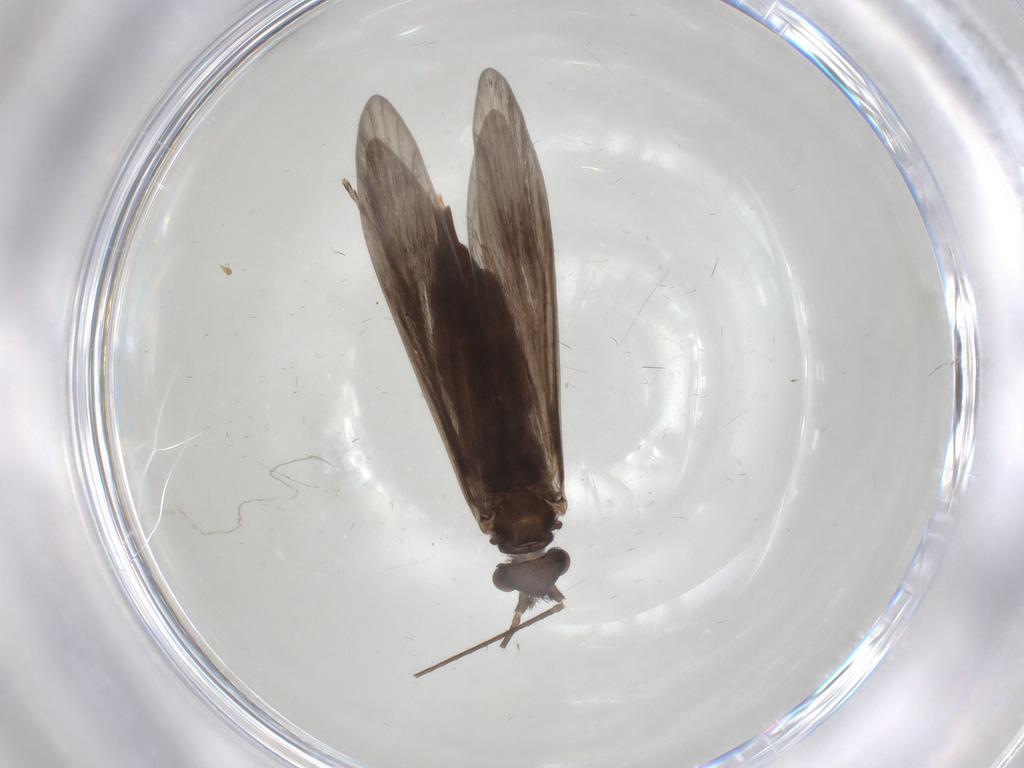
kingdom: Animalia
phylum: Arthropoda
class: Insecta
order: Trichoptera
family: Xiphocentronidae
